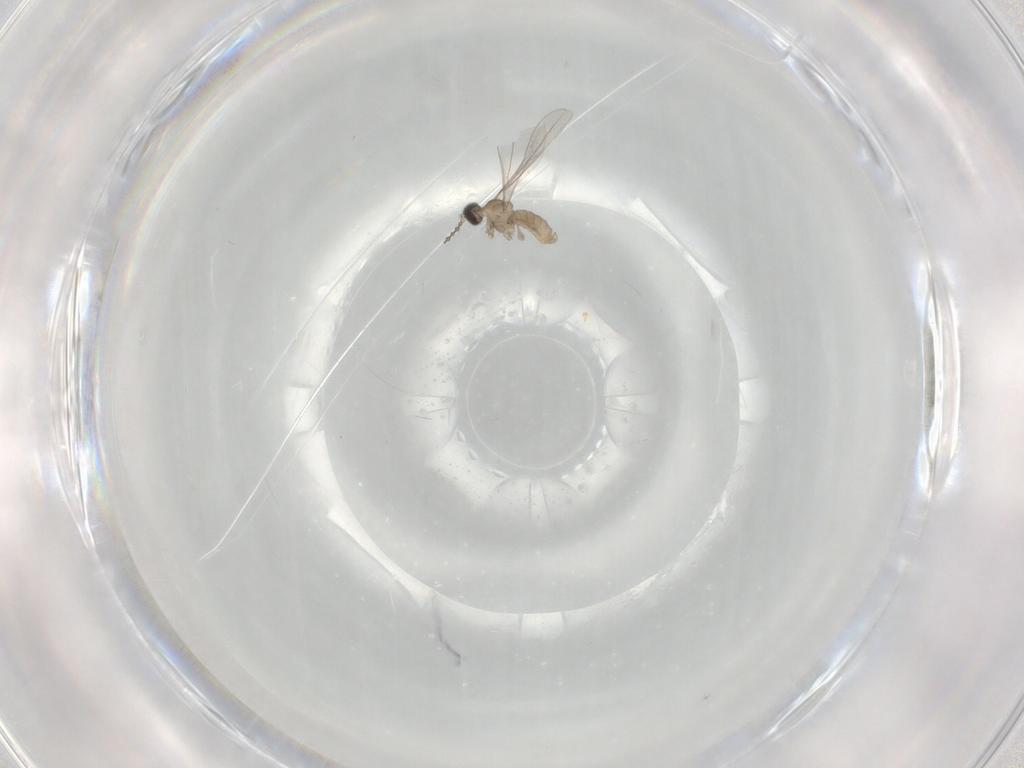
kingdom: Animalia
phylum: Arthropoda
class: Insecta
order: Diptera
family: Cecidomyiidae
